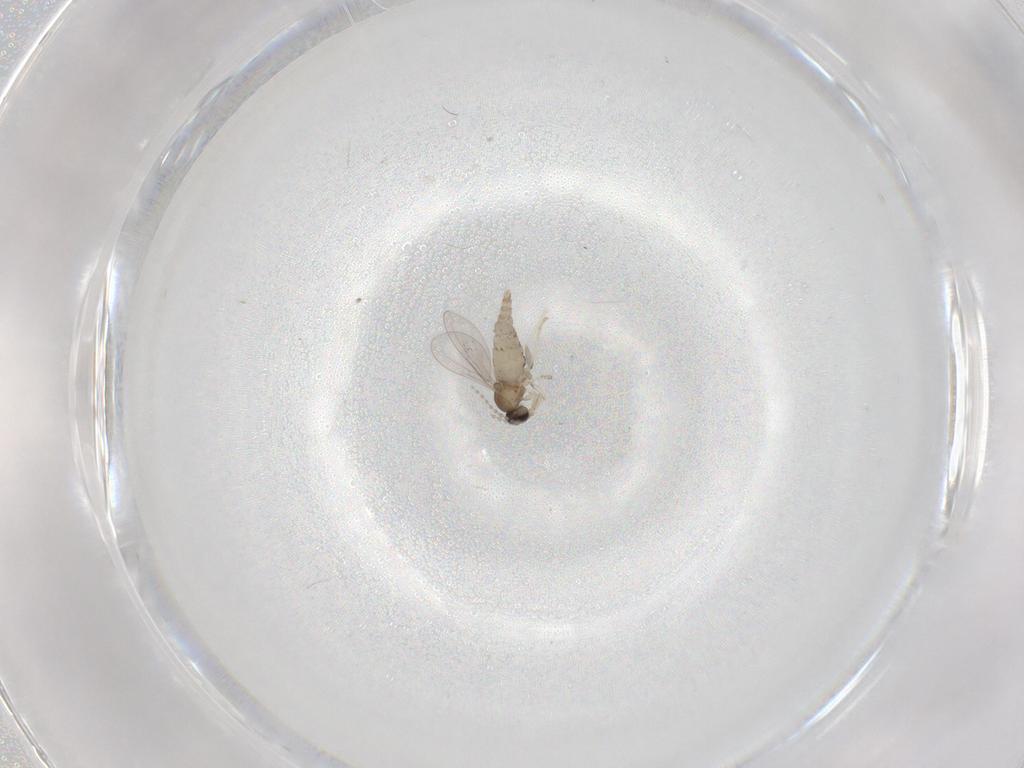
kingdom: Animalia
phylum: Arthropoda
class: Insecta
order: Diptera
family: Cecidomyiidae
